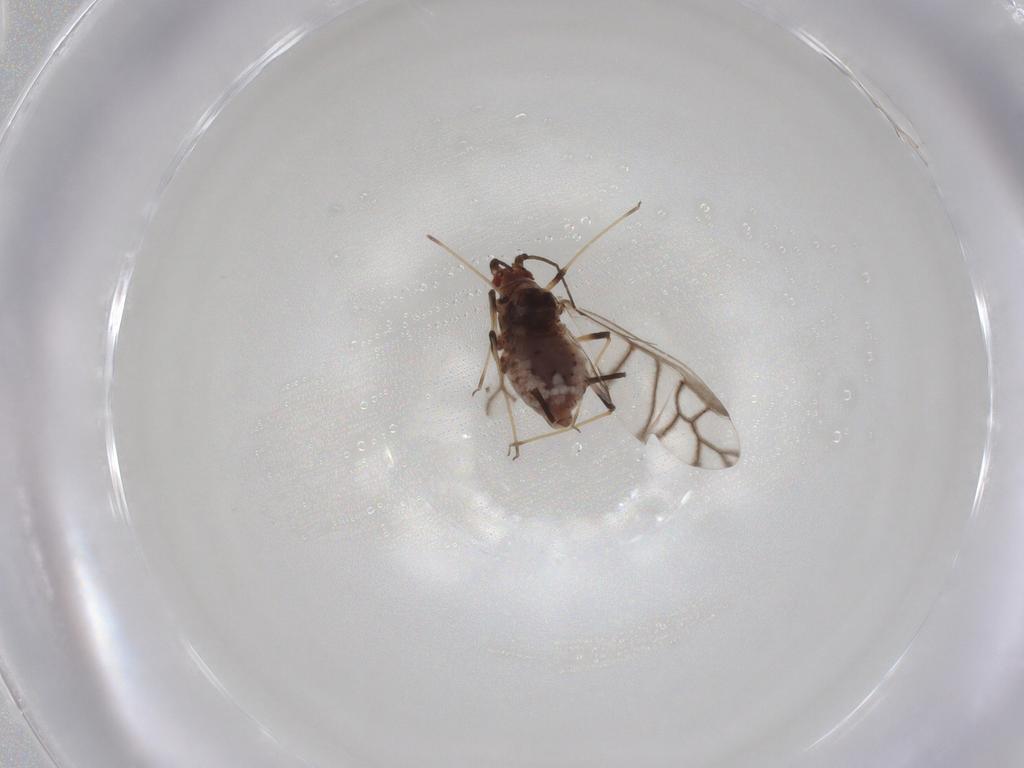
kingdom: Animalia
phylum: Arthropoda
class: Insecta
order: Hemiptera
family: Aphididae
